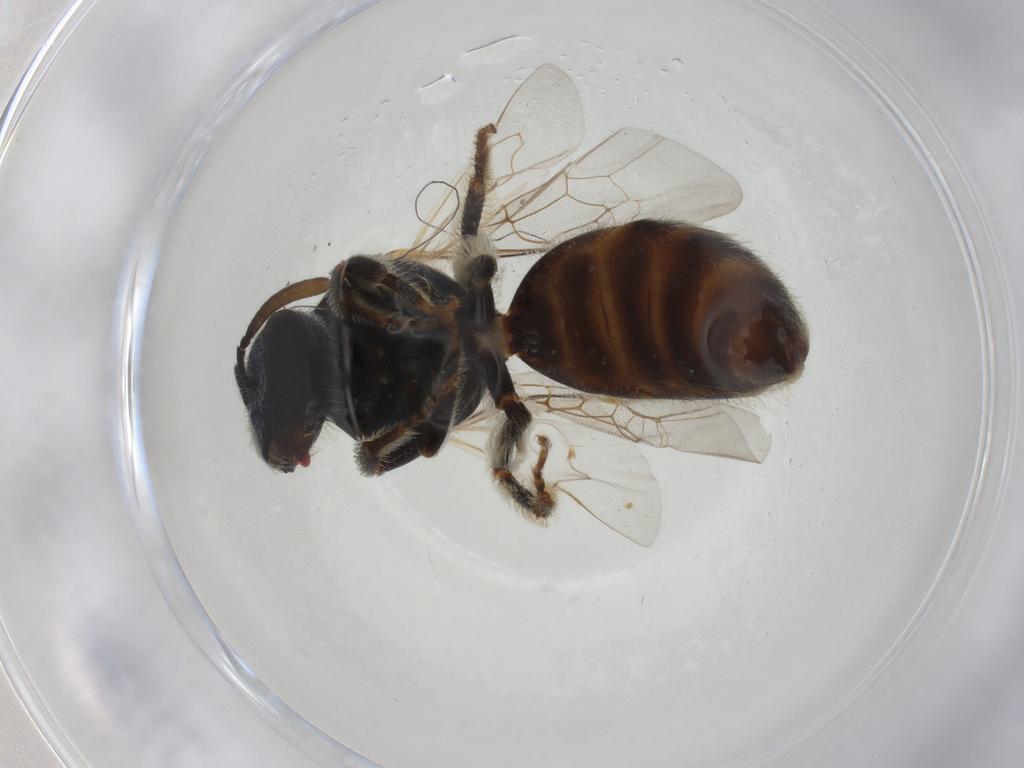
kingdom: Animalia
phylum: Arthropoda
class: Insecta
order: Hymenoptera
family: Halictidae
